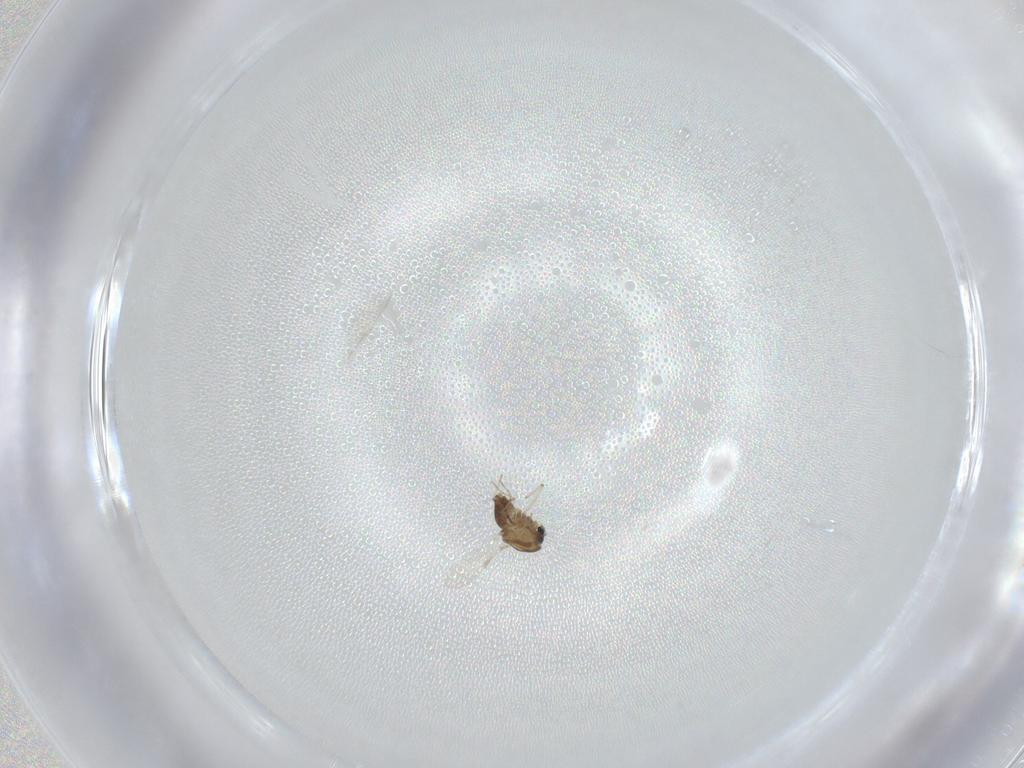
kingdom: Animalia
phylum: Arthropoda
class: Insecta
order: Diptera
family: Chironomidae
